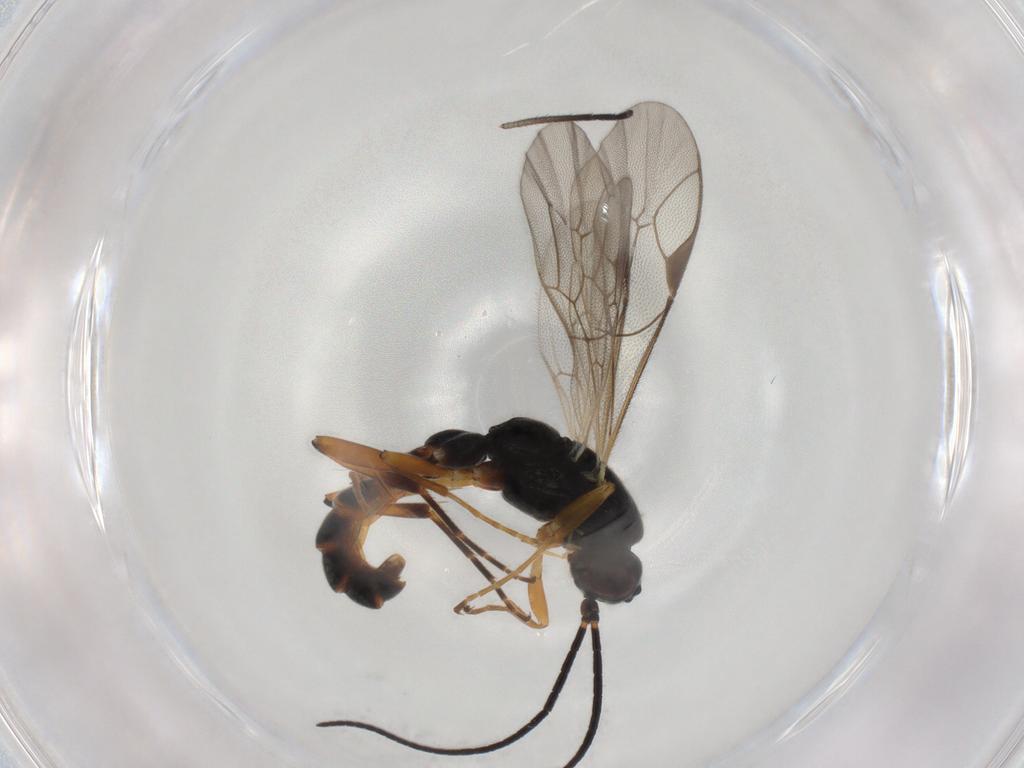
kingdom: Animalia
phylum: Arthropoda
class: Insecta
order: Hymenoptera
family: Ichneumonidae
